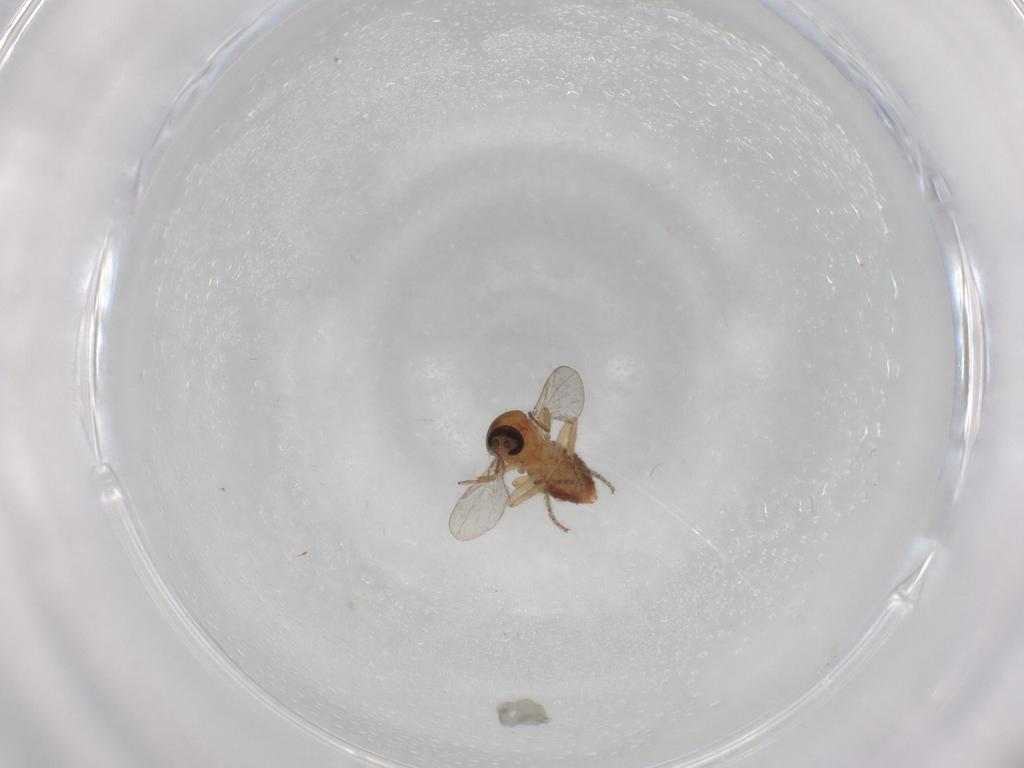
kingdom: Animalia
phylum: Arthropoda
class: Insecta
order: Diptera
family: Ceratopogonidae
